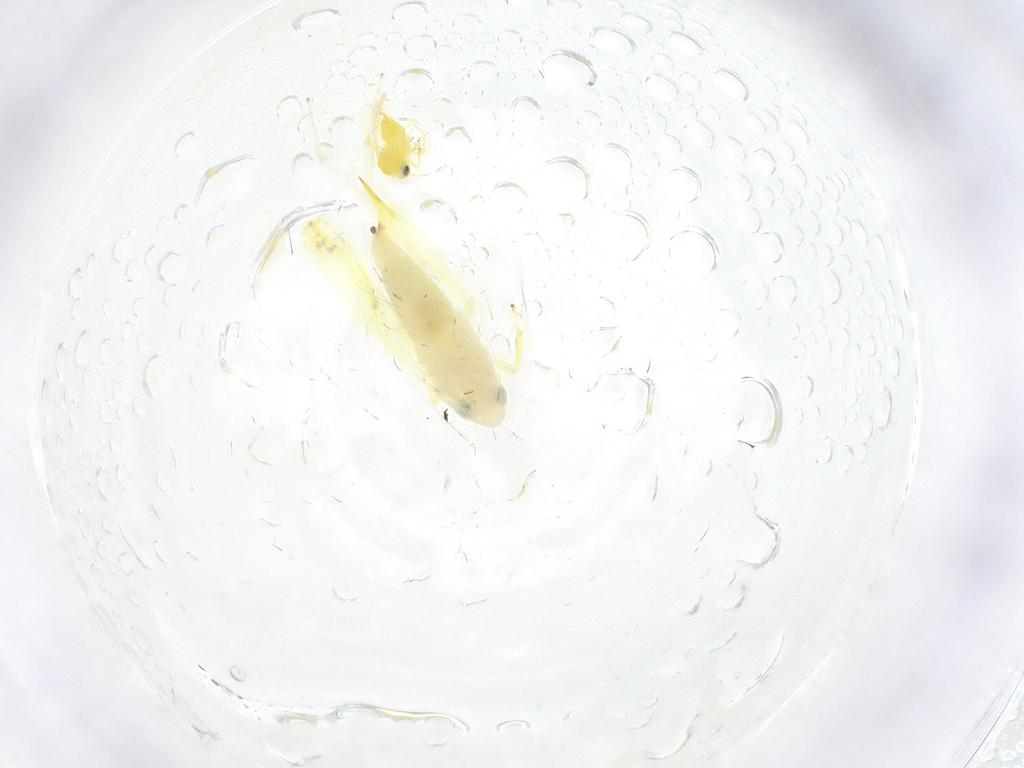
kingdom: Animalia
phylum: Arthropoda
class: Insecta
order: Hemiptera
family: Cicadellidae
